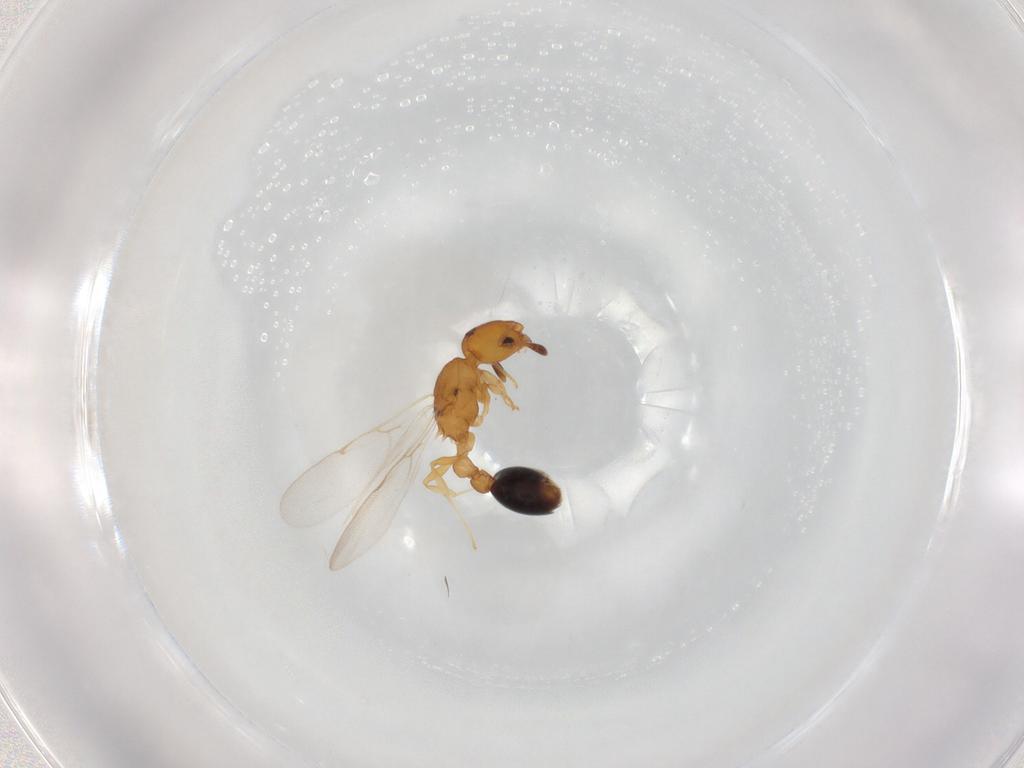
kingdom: Animalia
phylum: Arthropoda
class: Insecta
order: Hymenoptera
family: Formicidae
